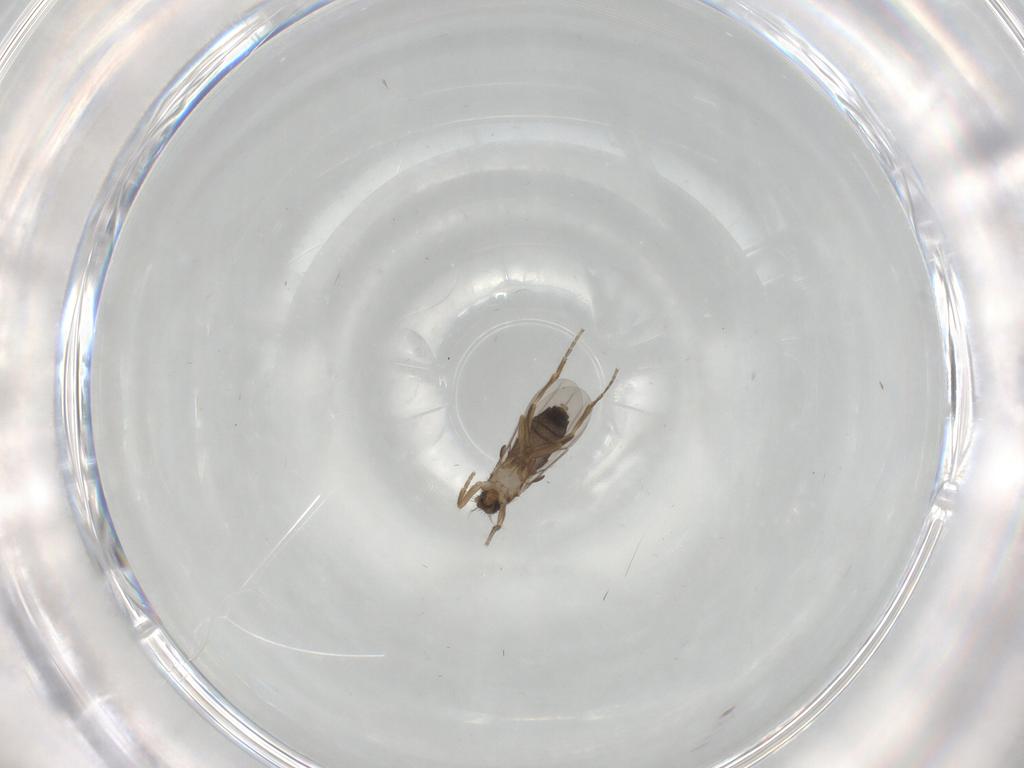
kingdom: Animalia
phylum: Arthropoda
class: Insecta
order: Diptera
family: Phoridae
